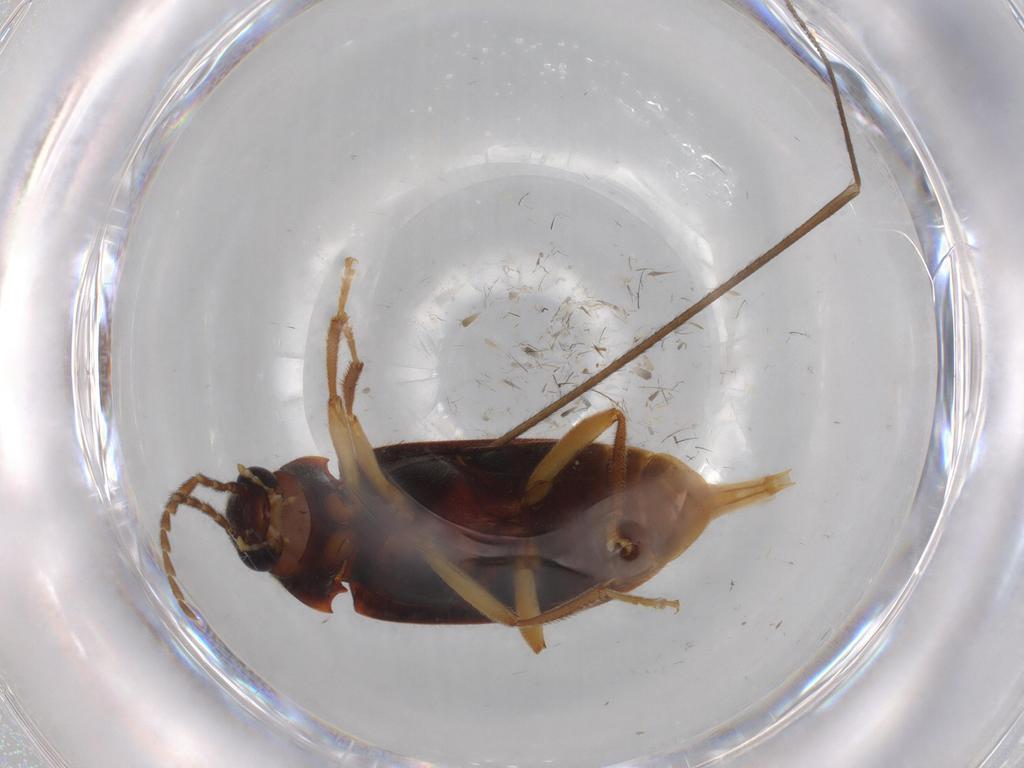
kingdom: Animalia
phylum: Arthropoda
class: Insecta
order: Coleoptera
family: Ptilodactylidae
